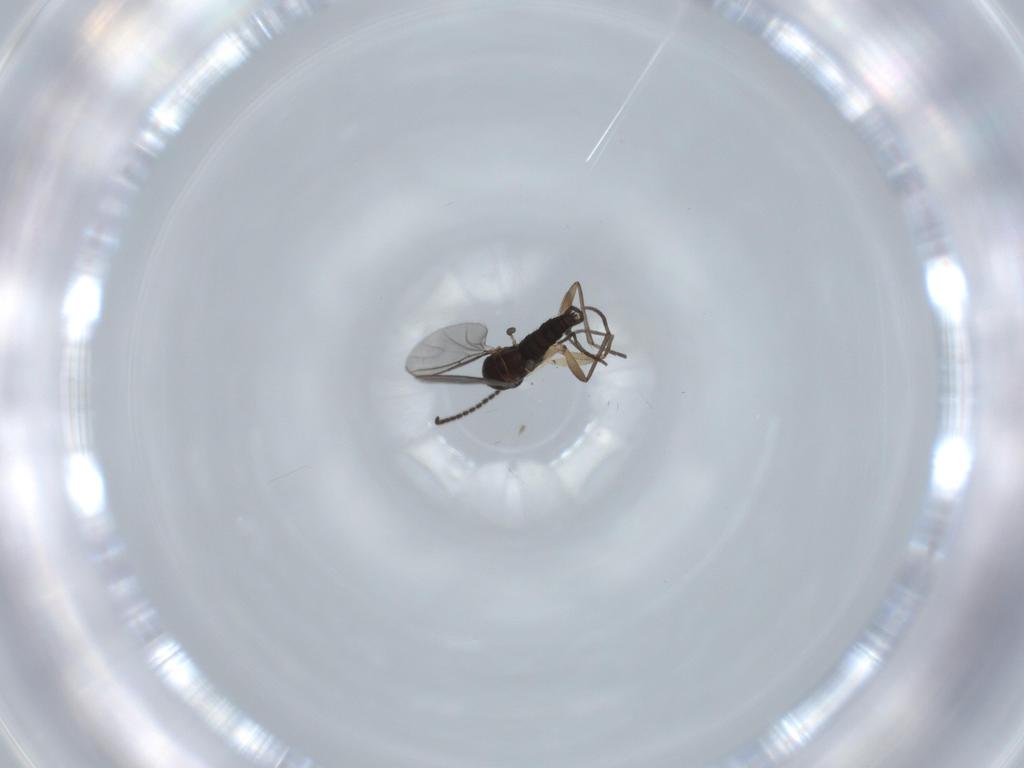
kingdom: Animalia
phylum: Arthropoda
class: Insecta
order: Diptera
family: Sciaridae
